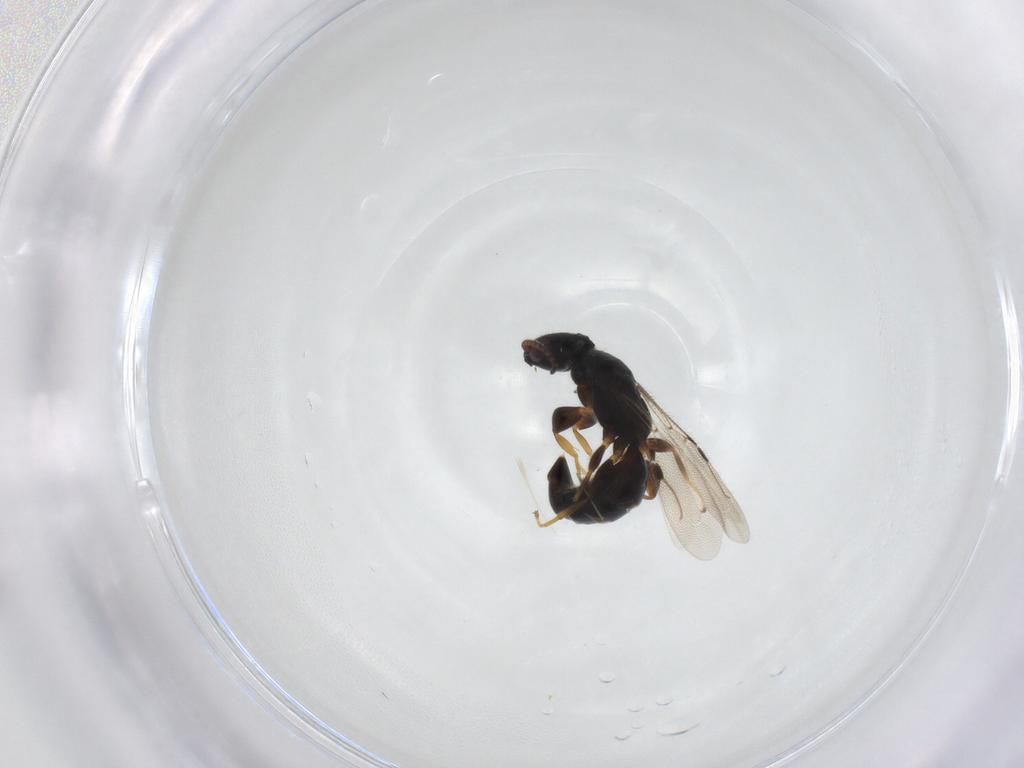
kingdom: Animalia
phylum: Arthropoda
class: Insecta
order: Hymenoptera
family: Bethylidae
